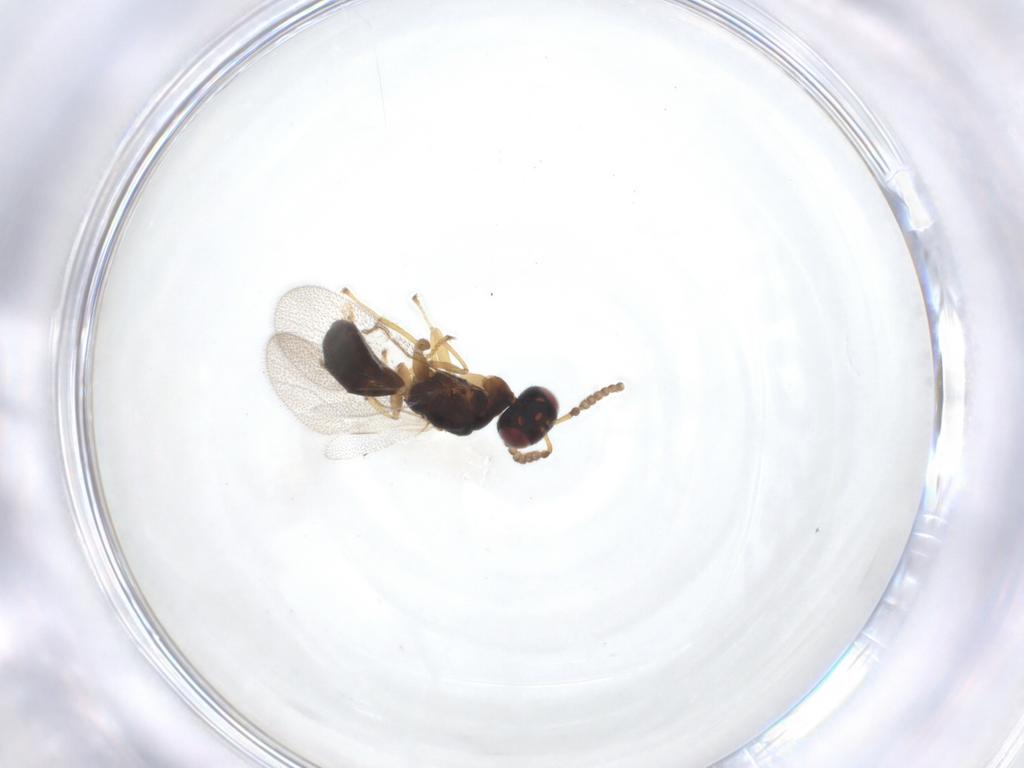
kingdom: Animalia
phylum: Arthropoda
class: Insecta
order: Hymenoptera
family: Agaonidae
